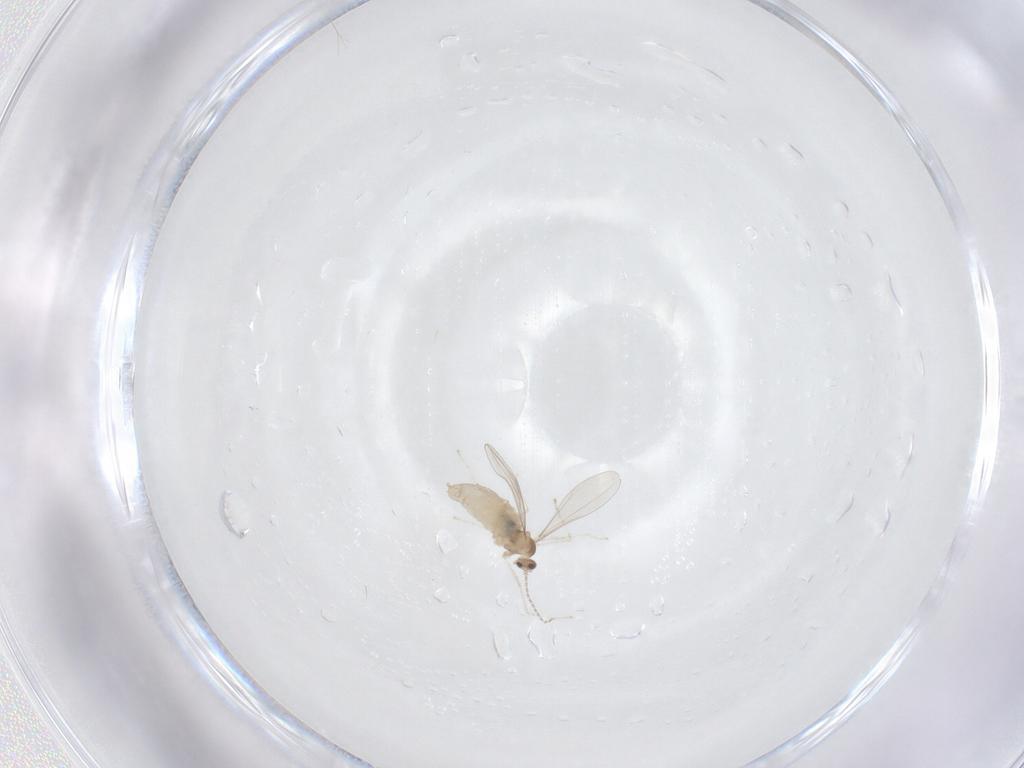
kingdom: Animalia
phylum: Arthropoda
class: Insecta
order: Diptera
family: Cecidomyiidae
